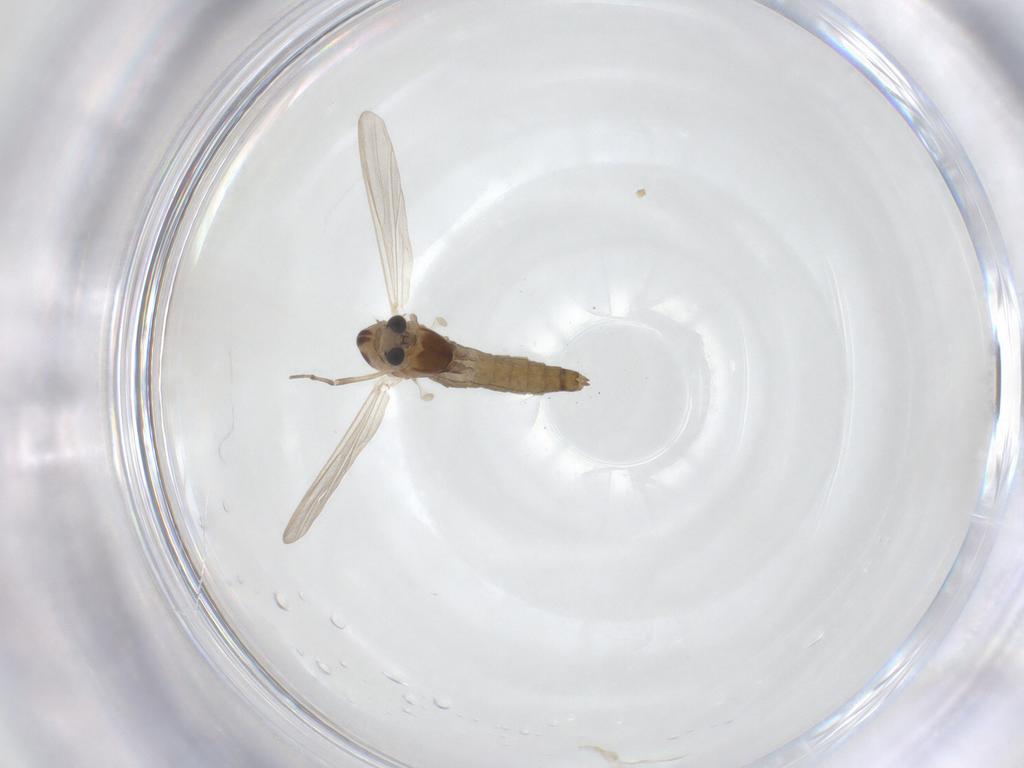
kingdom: Animalia
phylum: Arthropoda
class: Insecta
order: Diptera
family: Chironomidae
